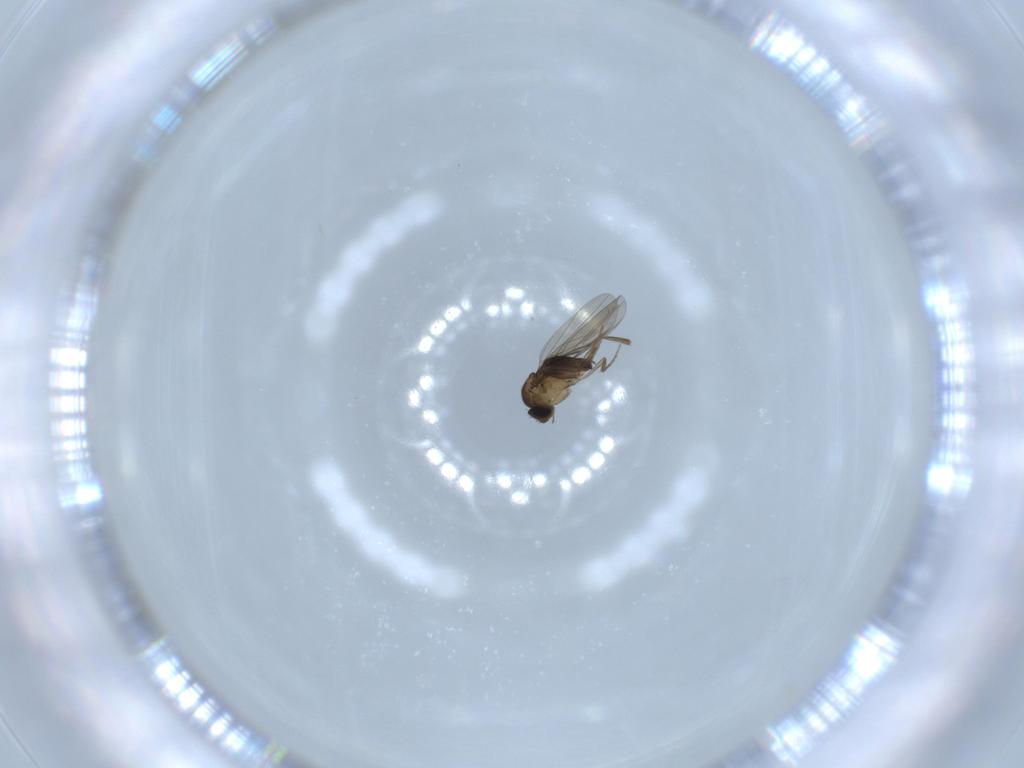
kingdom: Animalia
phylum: Arthropoda
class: Insecta
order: Diptera
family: Phoridae
